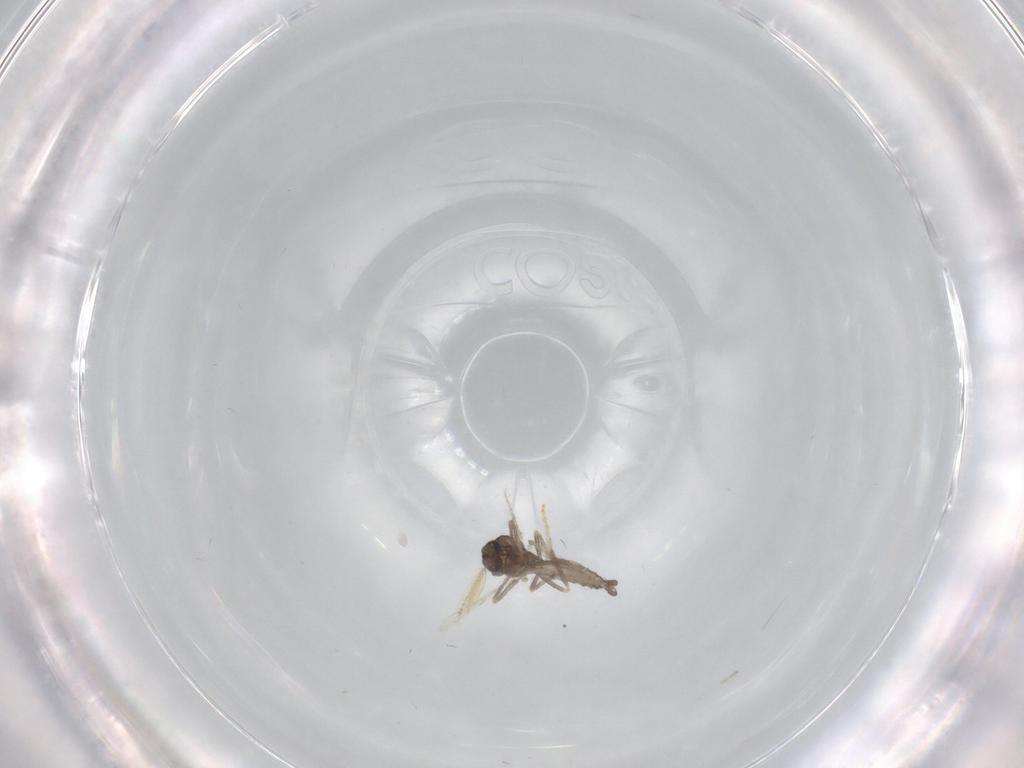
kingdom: Animalia
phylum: Arthropoda
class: Insecta
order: Diptera
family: Ceratopogonidae
